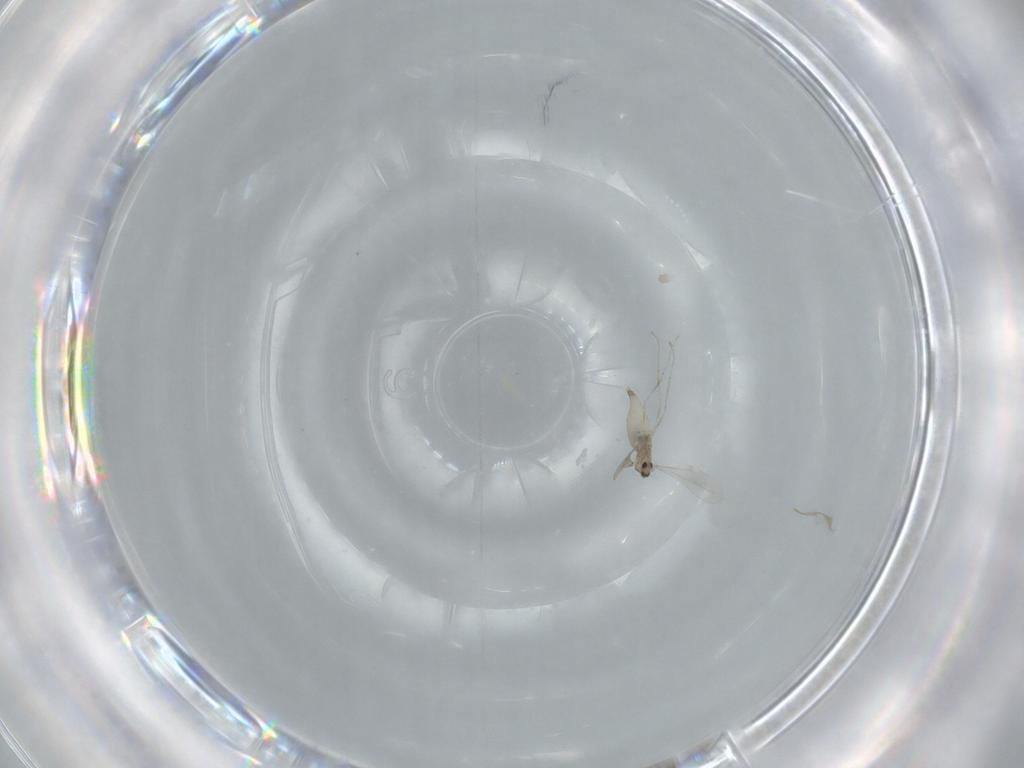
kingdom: Animalia
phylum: Arthropoda
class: Insecta
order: Diptera
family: Cecidomyiidae
